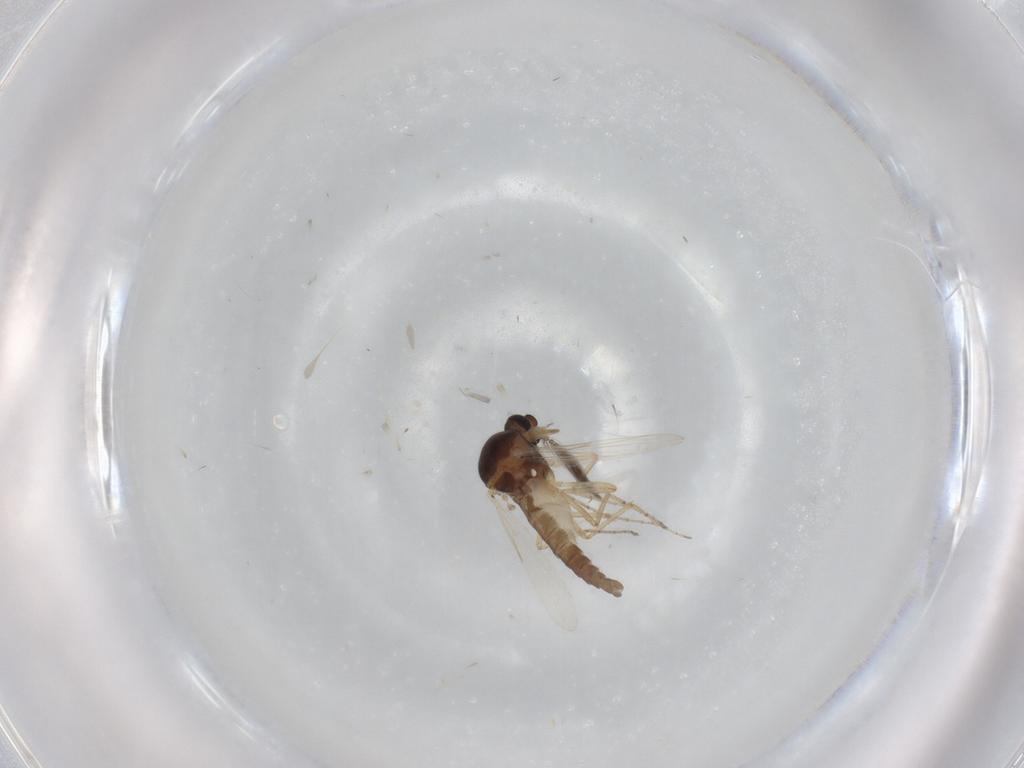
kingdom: Animalia
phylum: Arthropoda
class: Insecta
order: Diptera
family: Ceratopogonidae
